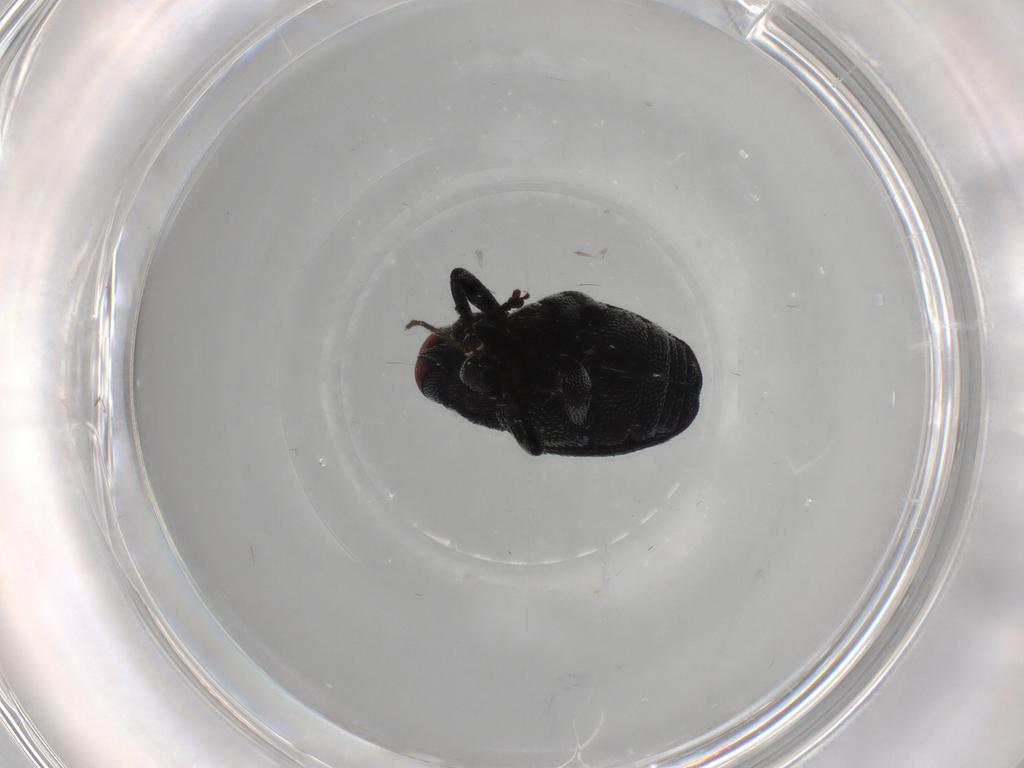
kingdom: Animalia
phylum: Arthropoda
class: Insecta
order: Coleoptera
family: Curculionidae
